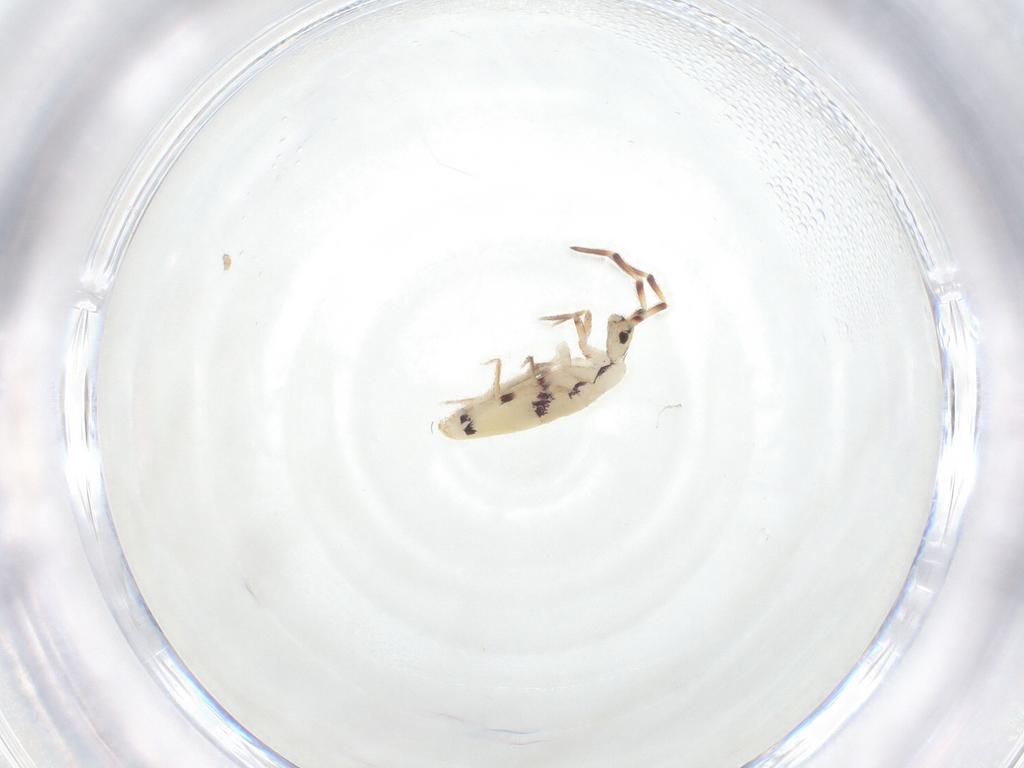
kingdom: Animalia
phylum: Arthropoda
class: Collembola
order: Entomobryomorpha
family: Entomobryidae
